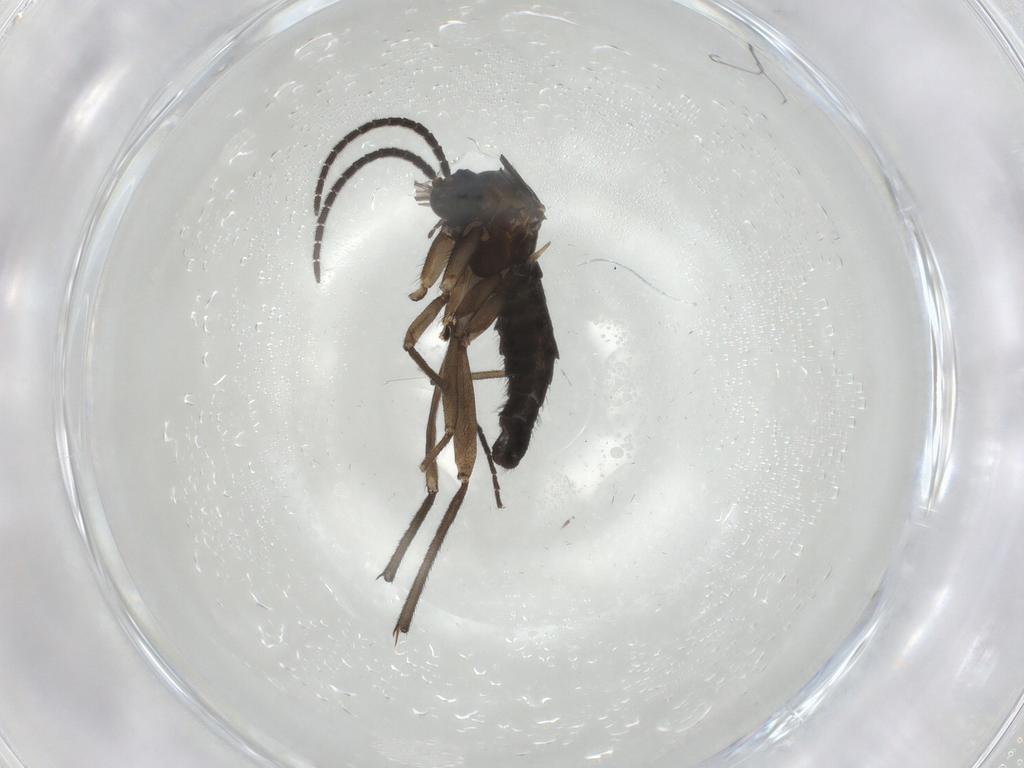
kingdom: Animalia
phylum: Arthropoda
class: Insecta
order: Diptera
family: Sciaridae
